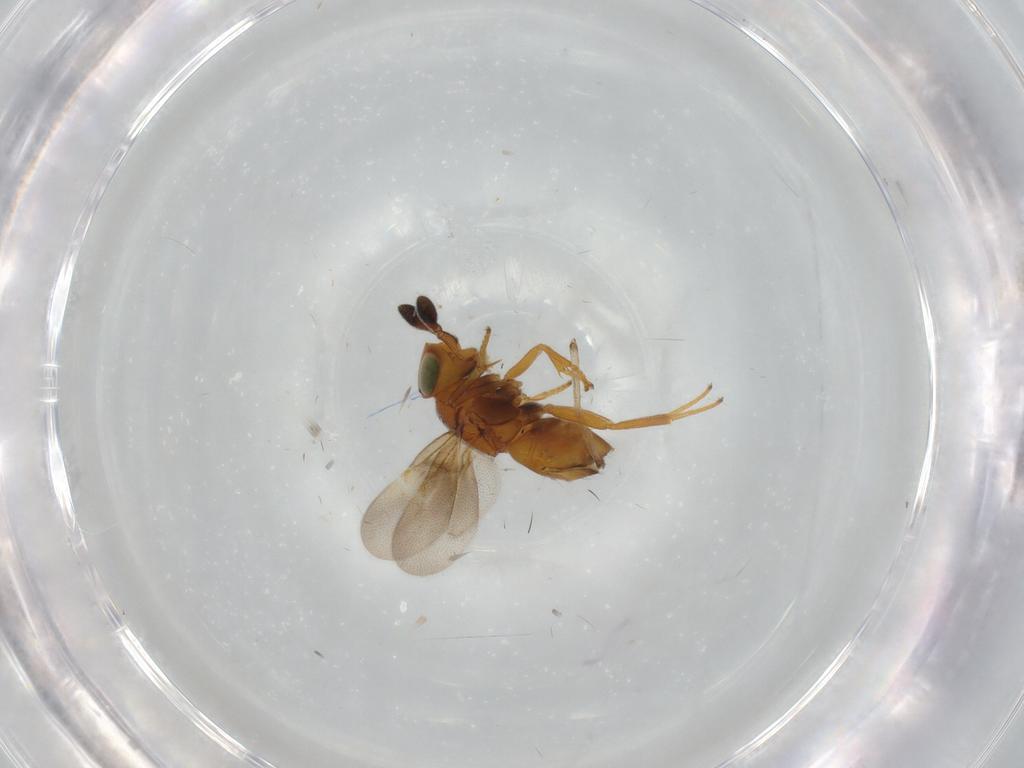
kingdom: Animalia
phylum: Arthropoda
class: Insecta
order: Hymenoptera
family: Encyrtidae
